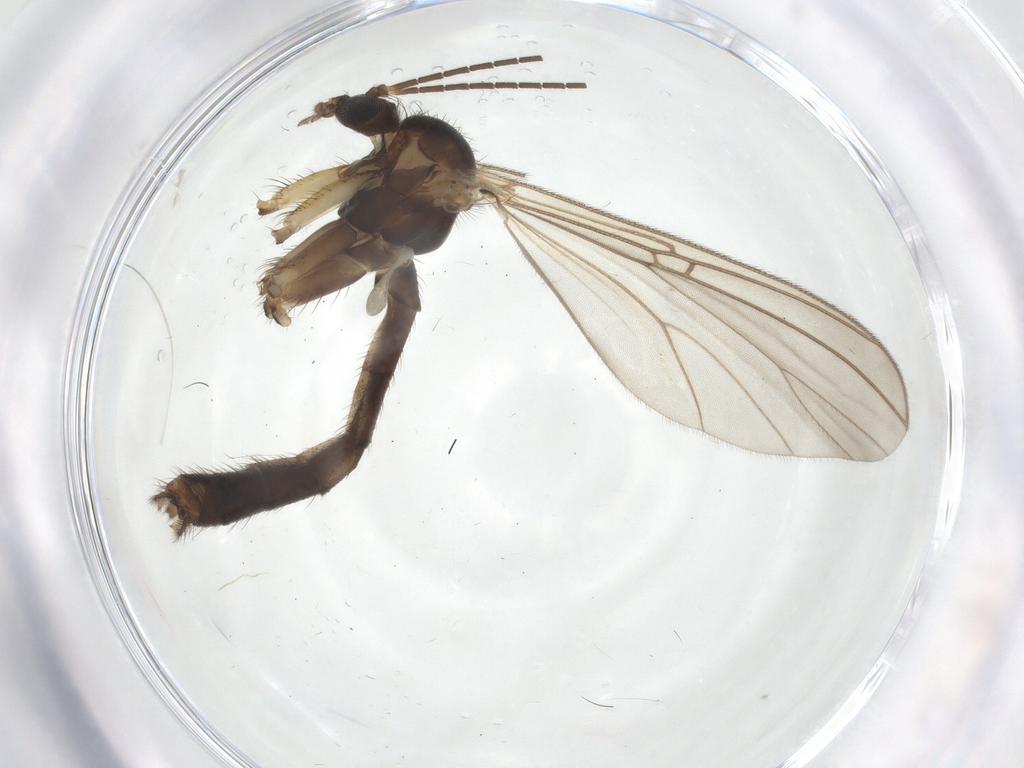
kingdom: Animalia
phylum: Arthropoda
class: Insecta
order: Diptera
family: Mycetophilidae
